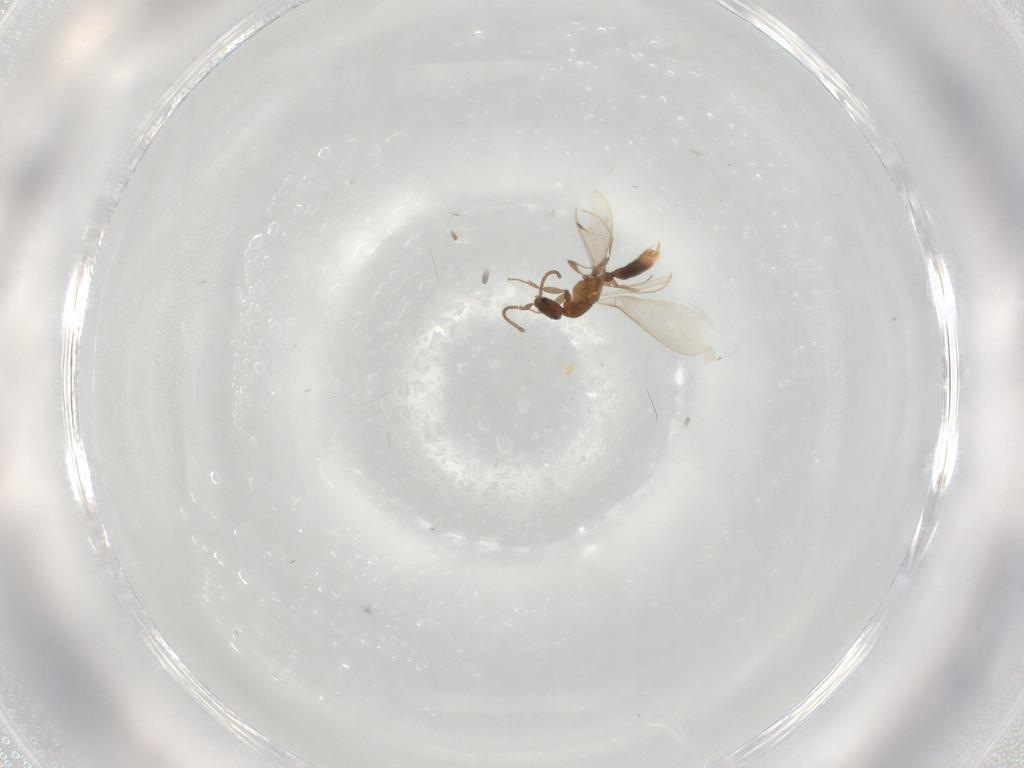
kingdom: Animalia
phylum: Arthropoda
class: Insecta
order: Hymenoptera
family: Formicidae
